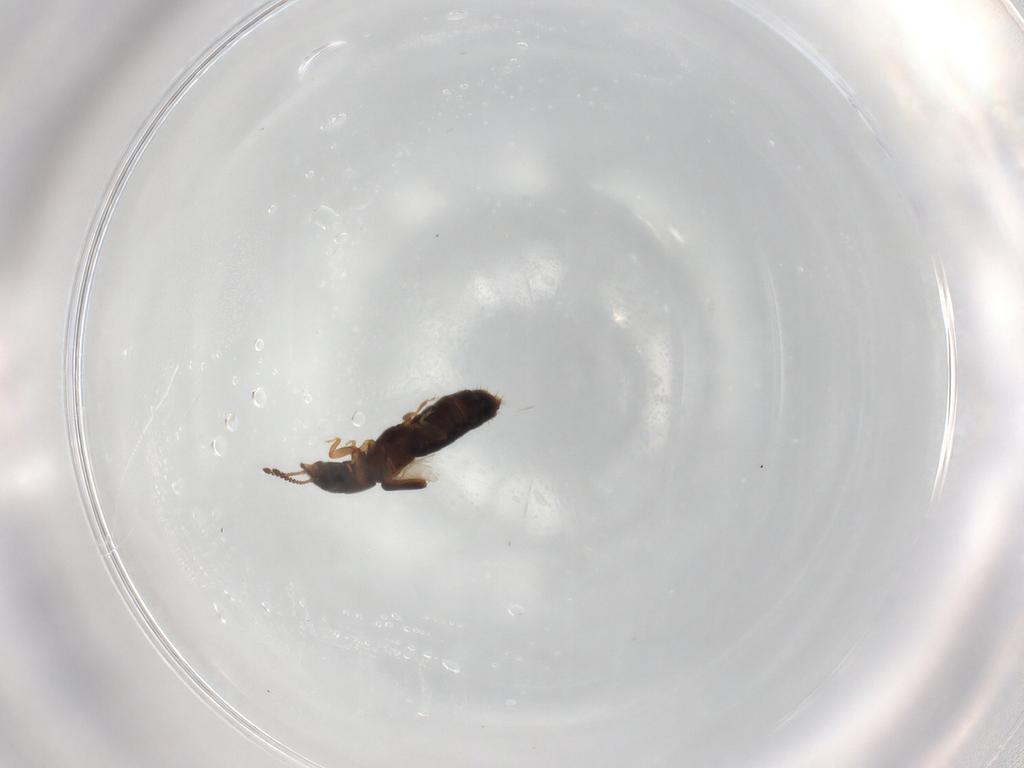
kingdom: Animalia
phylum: Arthropoda
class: Insecta
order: Coleoptera
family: Staphylinidae
